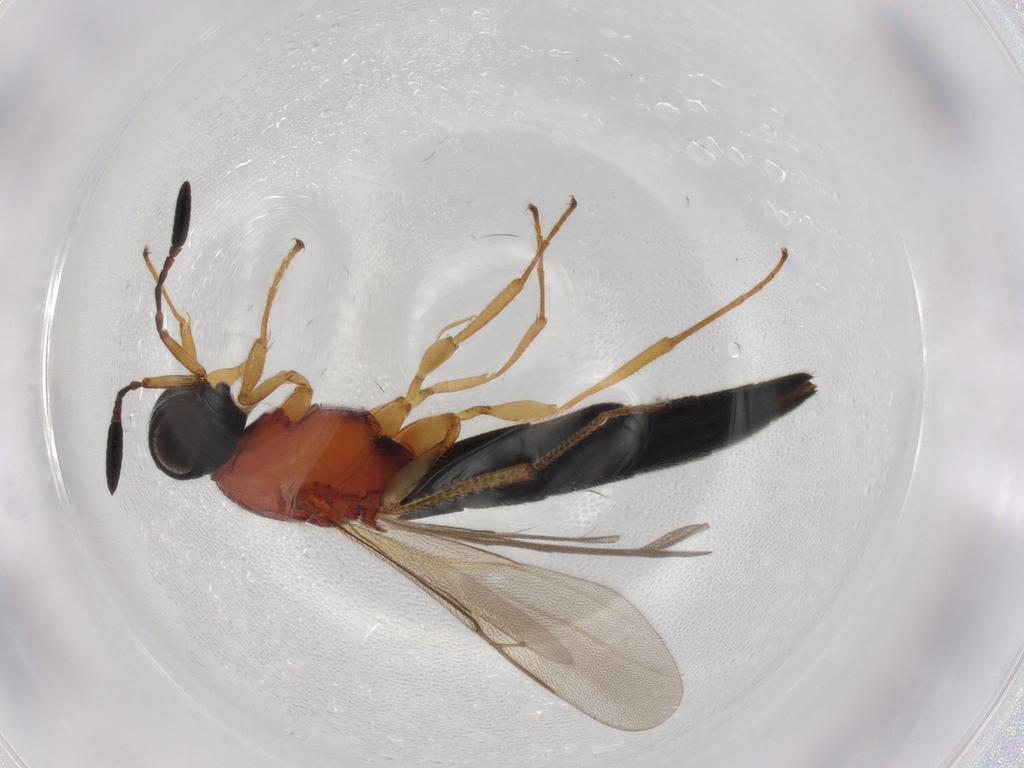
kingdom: Animalia
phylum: Arthropoda
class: Insecta
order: Hymenoptera
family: Scelionidae
